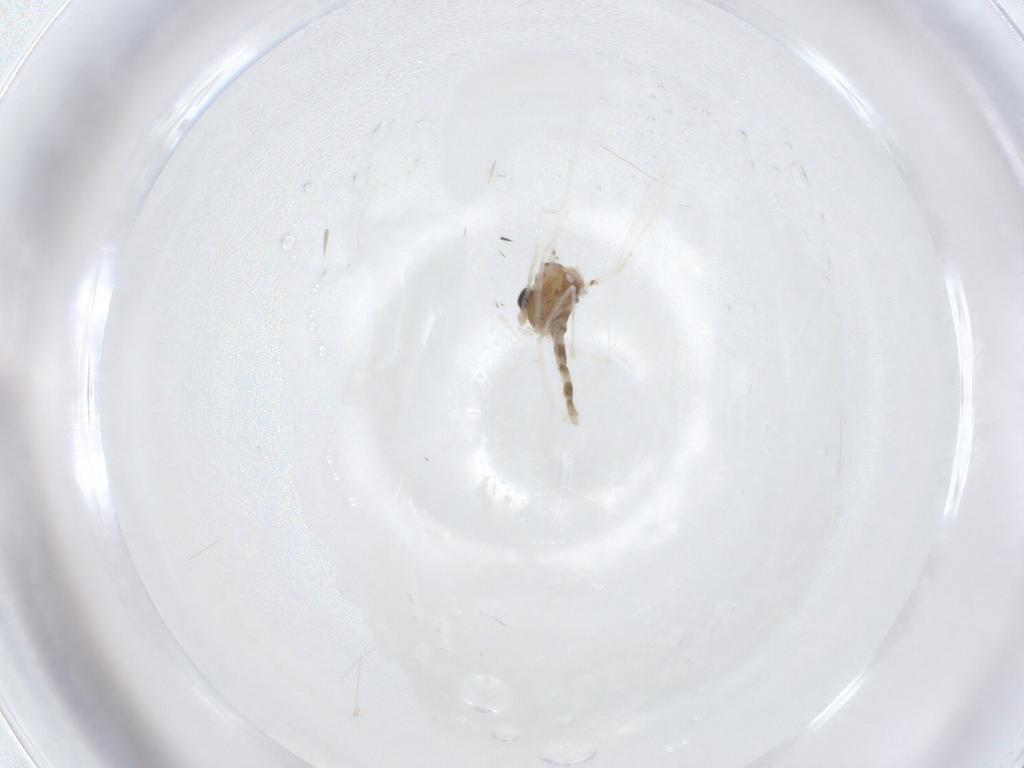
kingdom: Animalia
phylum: Arthropoda
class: Insecta
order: Diptera
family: Chironomidae
